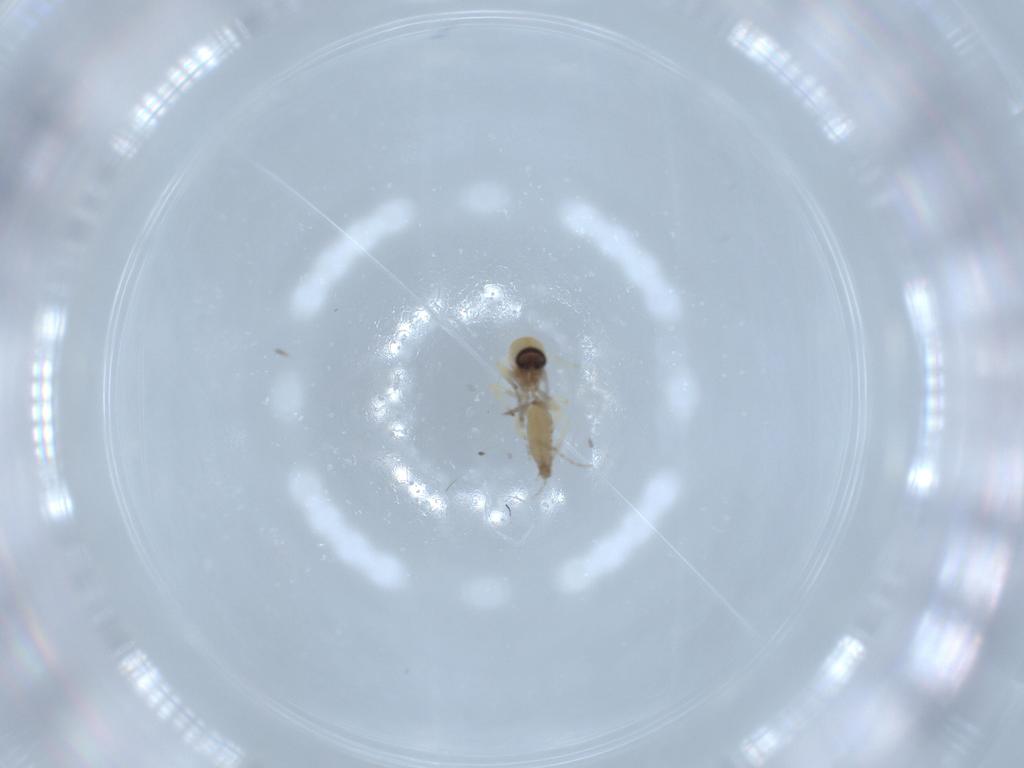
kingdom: Animalia
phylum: Arthropoda
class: Insecta
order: Diptera
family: Ceratopogonidae
